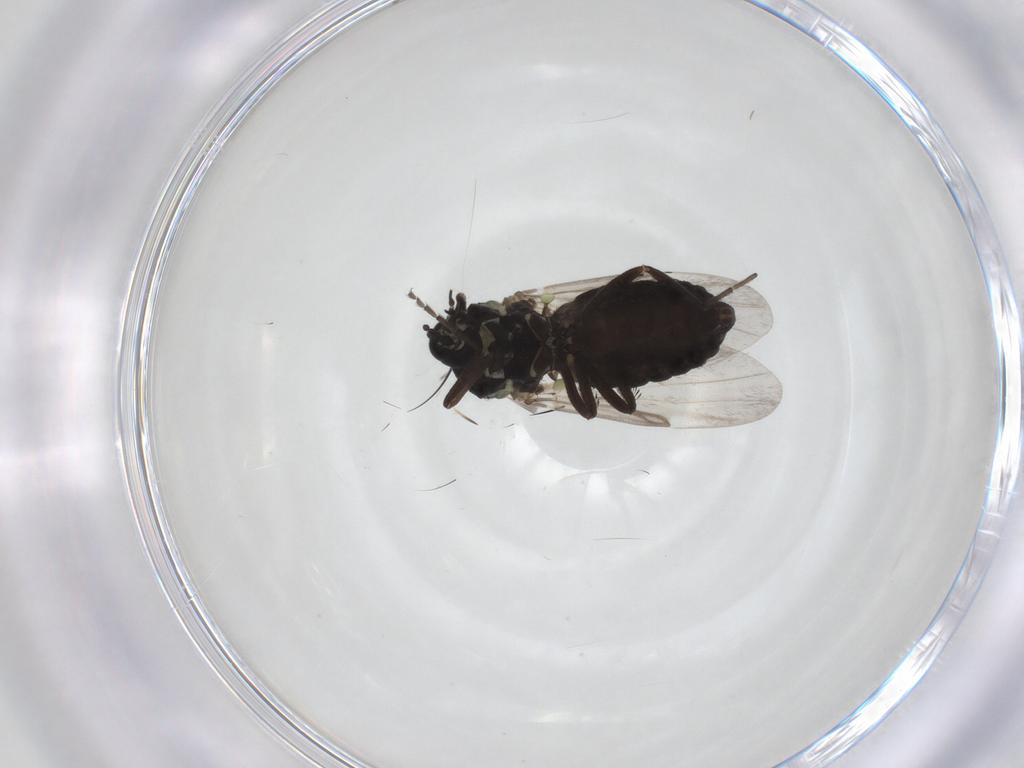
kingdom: Animalia
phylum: Arthropoda
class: Insecta
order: Diptera
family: Ceratopogonidae
